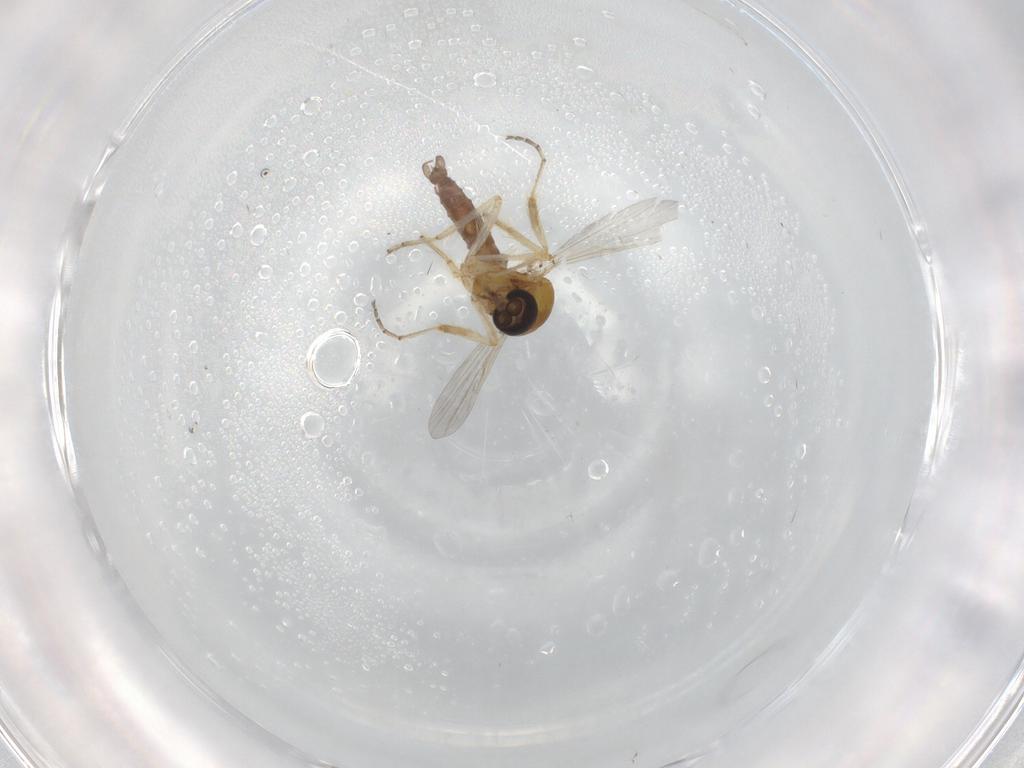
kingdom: Animalia
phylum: Arthropoda
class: Insecta
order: Diptera
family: Ceratopogonidae
